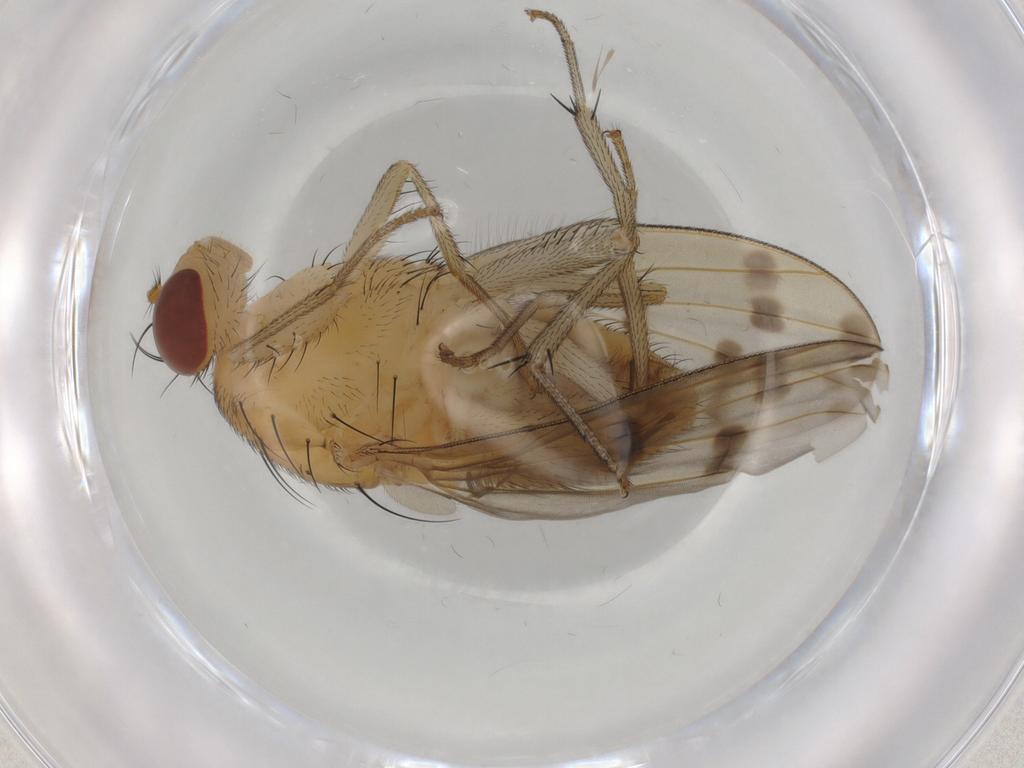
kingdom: Animalia
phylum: Arthropoda
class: Insecta
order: Diptera
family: Chironomidae
